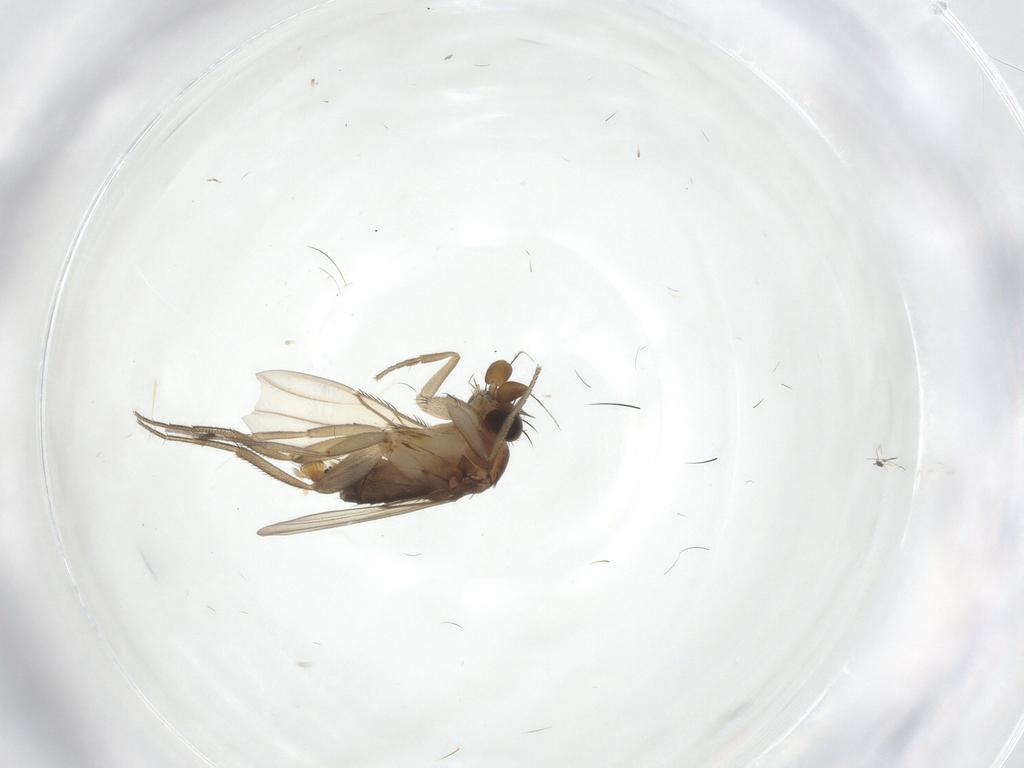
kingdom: Animalia
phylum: Arthropoda
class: Insecta
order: Diptera
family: Phoridae
